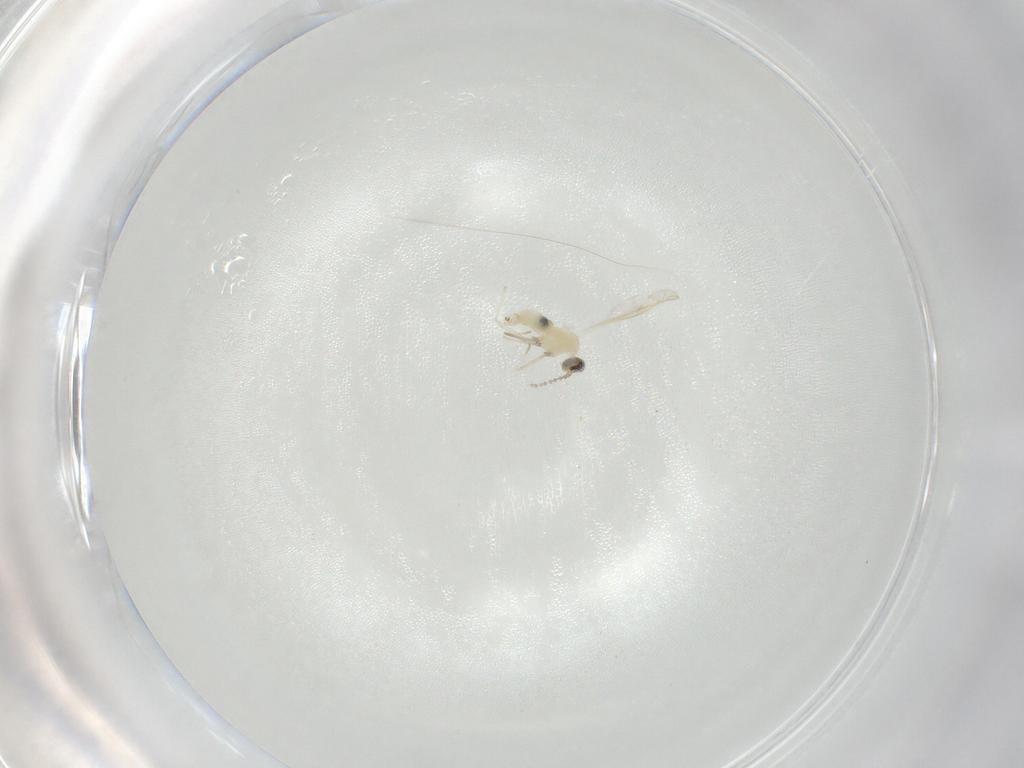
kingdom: Animalia
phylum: Arthropoda
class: Insecta
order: Diptera
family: Cecidomyiidae
